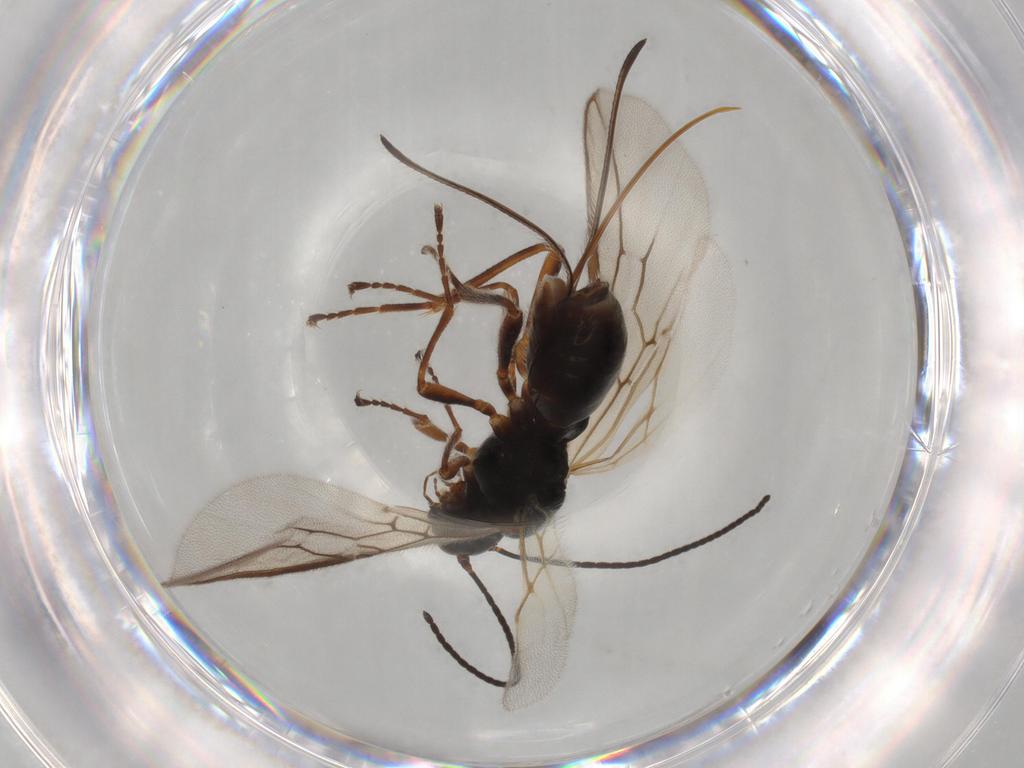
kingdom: Animalia
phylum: Arthropoda
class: Insecta
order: Hymenoptera
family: Braconidae
